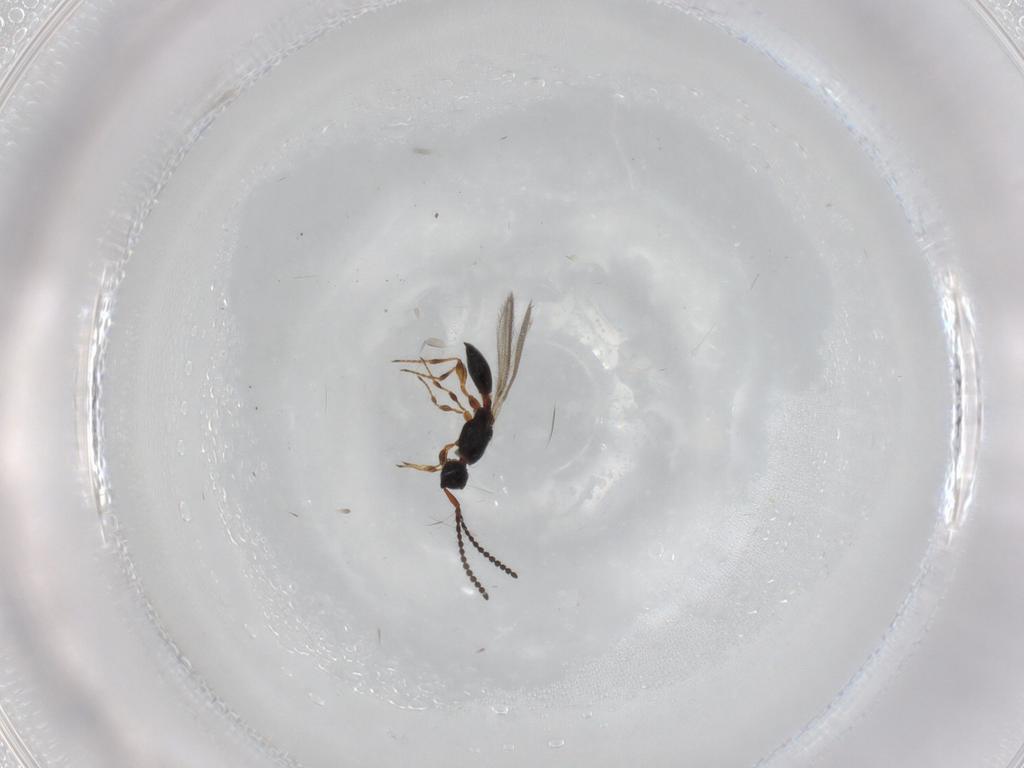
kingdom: Animalia
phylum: Arthropoda
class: Insecta
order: Hymenoptera
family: Diapriidae
